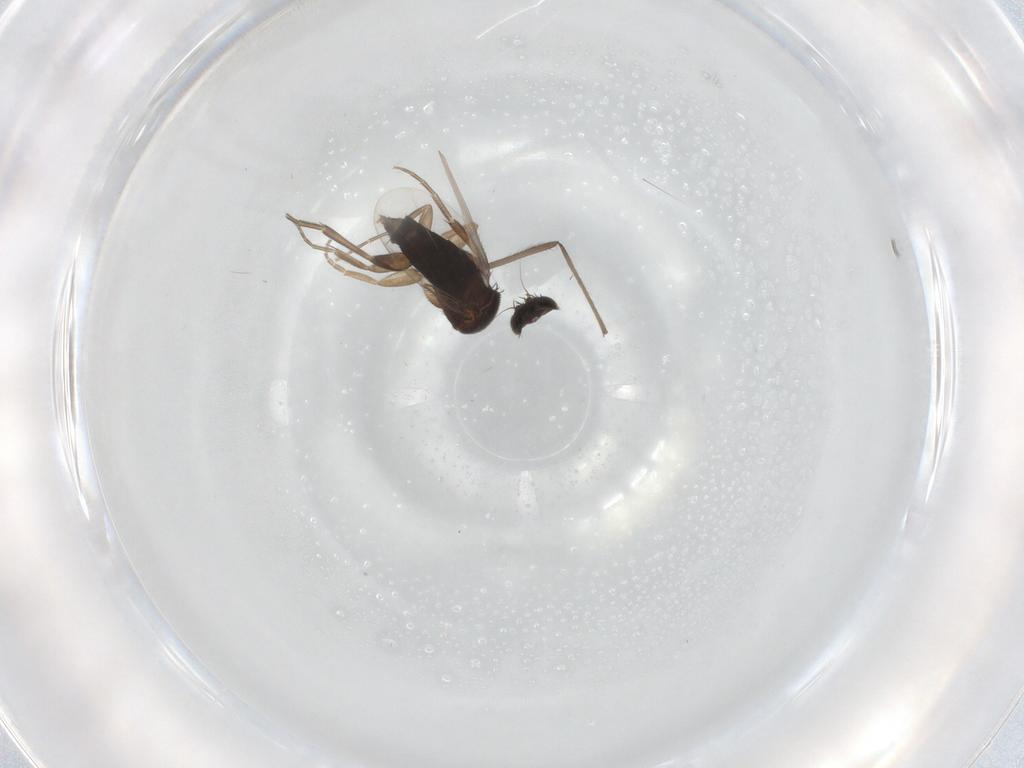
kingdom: Animalia
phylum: Arthropoda
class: Insecta
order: Diptera
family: Phoridae
